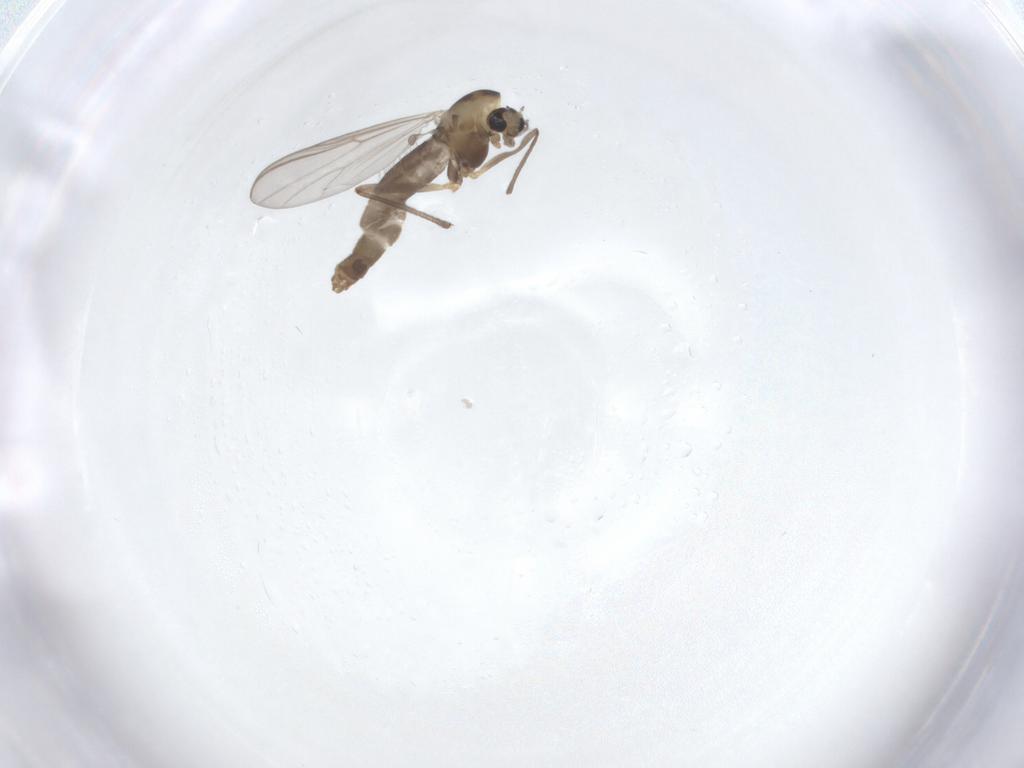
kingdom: Animalia
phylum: Arthropoda
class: Insecta
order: Diptera
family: Chironomidae
